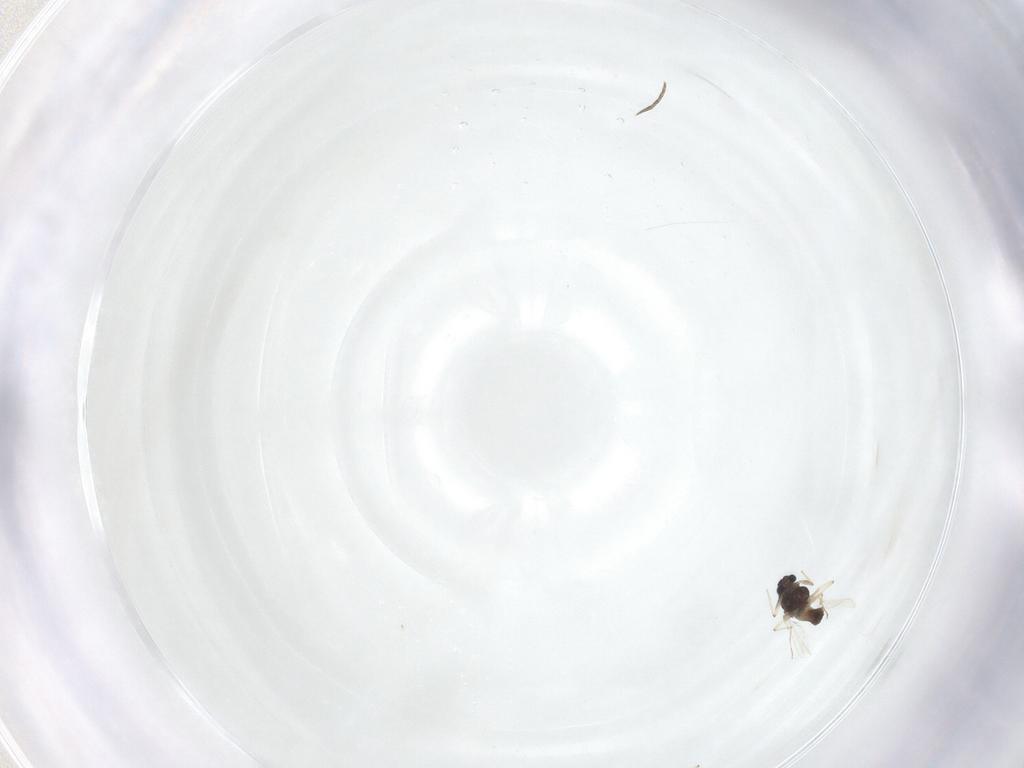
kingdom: Animalia
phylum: Arthropoda
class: Insecta
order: Diptera
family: Chironomidae
